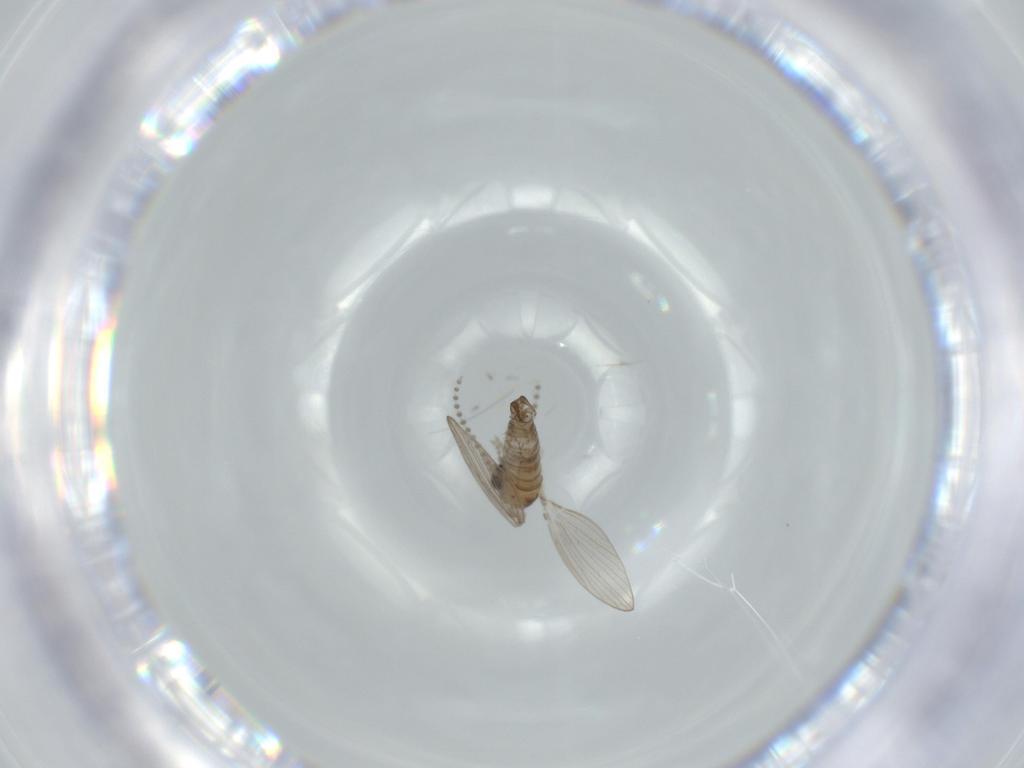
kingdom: Animalia
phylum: Arthropoda
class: Insecta
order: Diptera
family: Psychodidae
